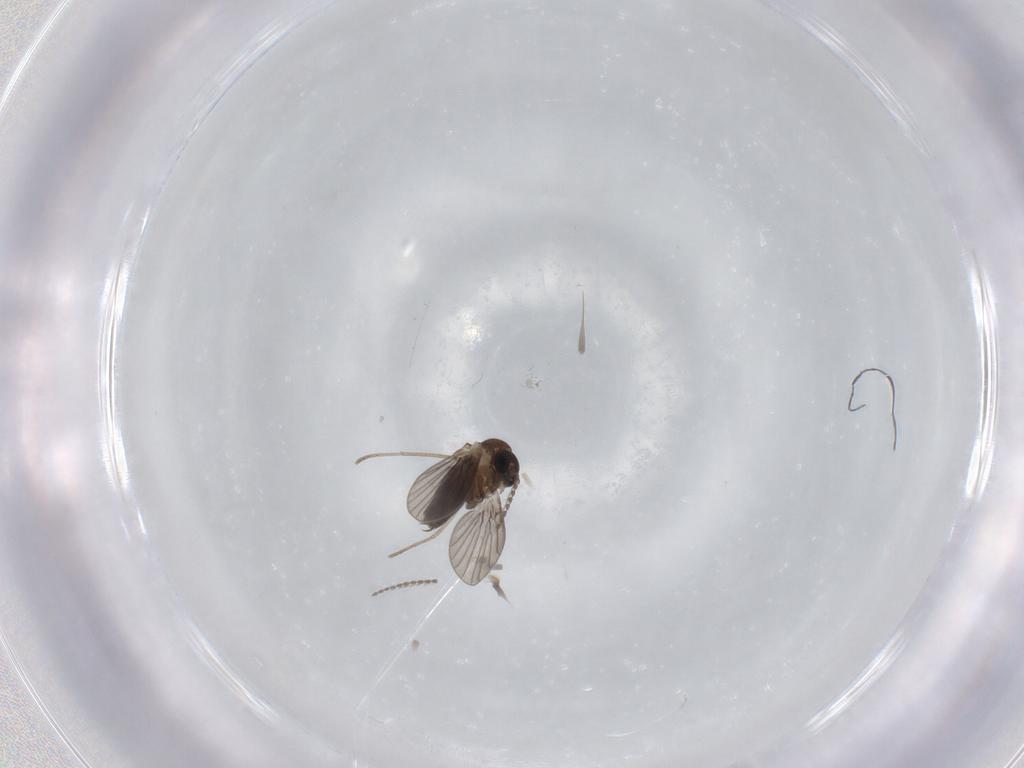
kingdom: Animalia
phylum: Arthropoda
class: Insecta
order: Diptera
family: Psychodidae
